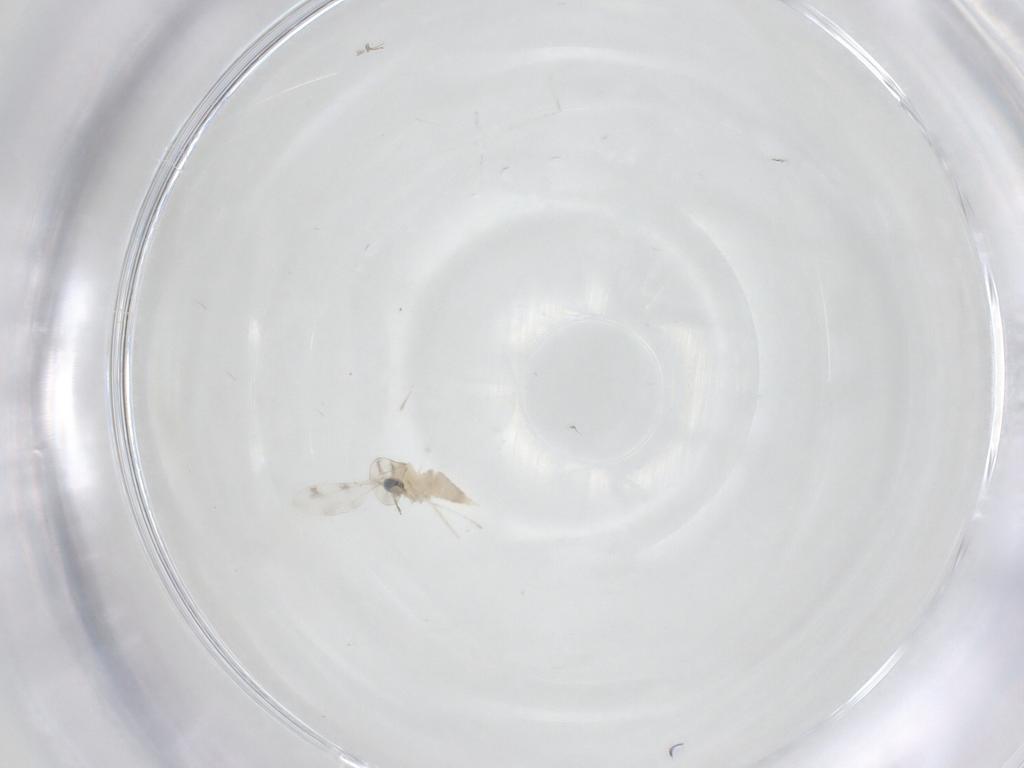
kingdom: Animalia
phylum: Arthropoda
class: Insecta
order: Diptera
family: Cecidomyiidae
